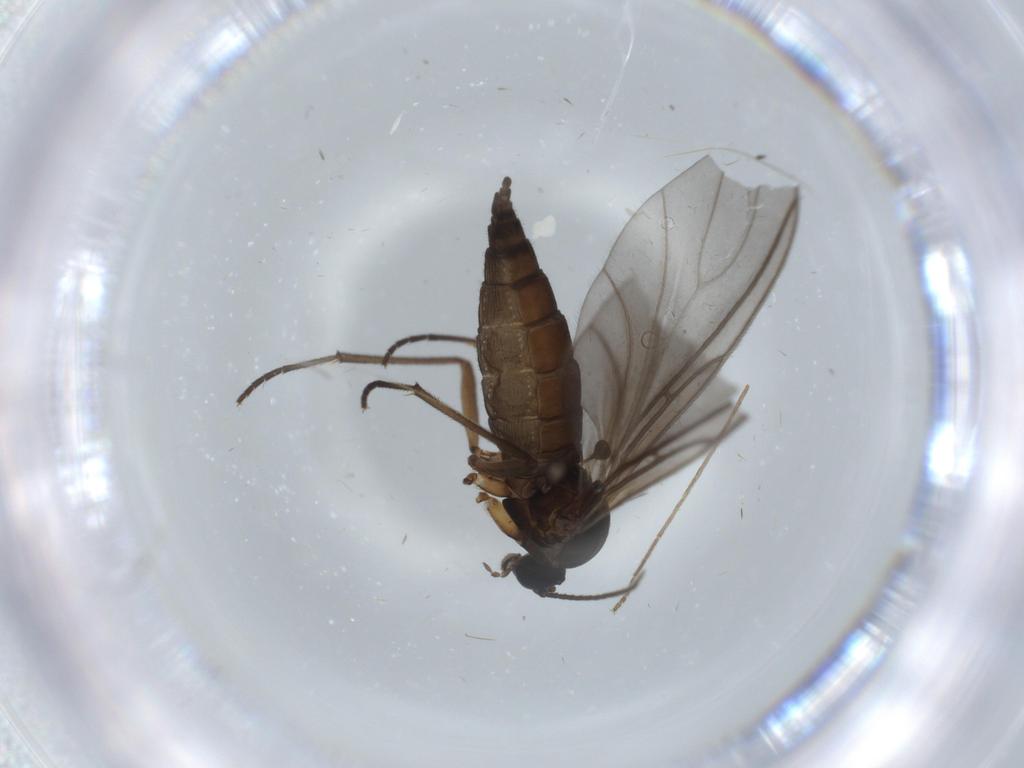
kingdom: Animalia
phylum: Arthropoda
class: Insecta
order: Diptera
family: Sciaridae
